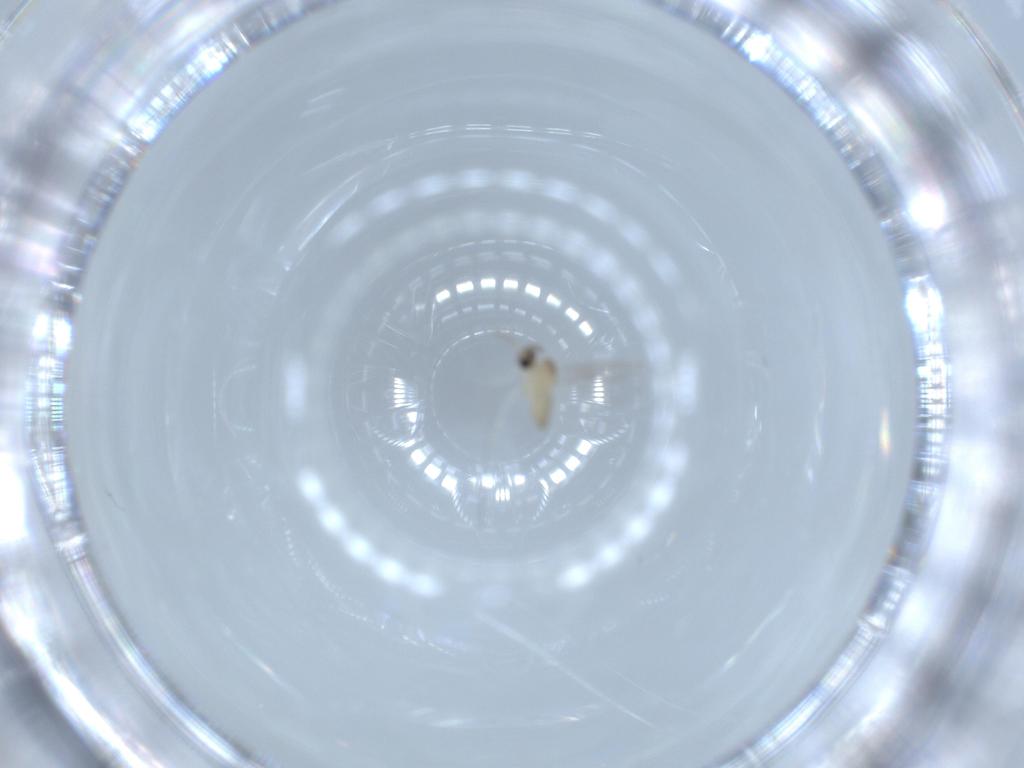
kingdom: Animalia
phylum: Arthropoda
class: Insecta
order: Diptera
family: Cecidomyiidae
